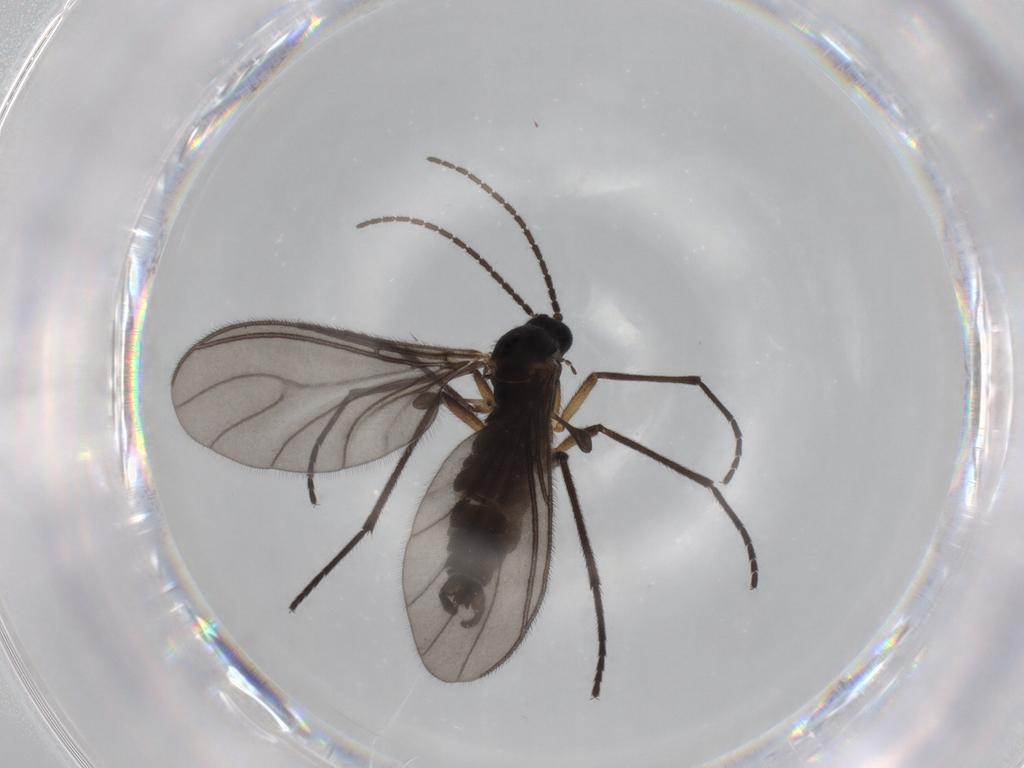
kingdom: Animalia
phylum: Arthropoda
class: Insecta
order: Diptera
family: Sciaridae
